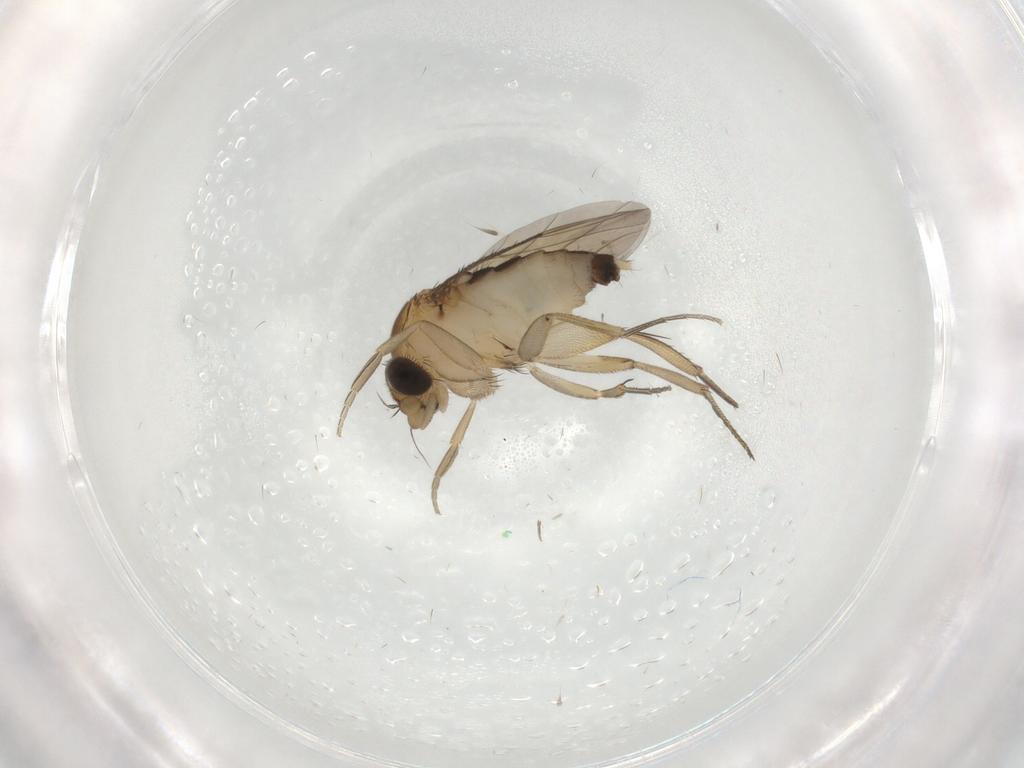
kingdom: Animalia
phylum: Arthropoda
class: Insecta
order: Diptera
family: Phoridae
